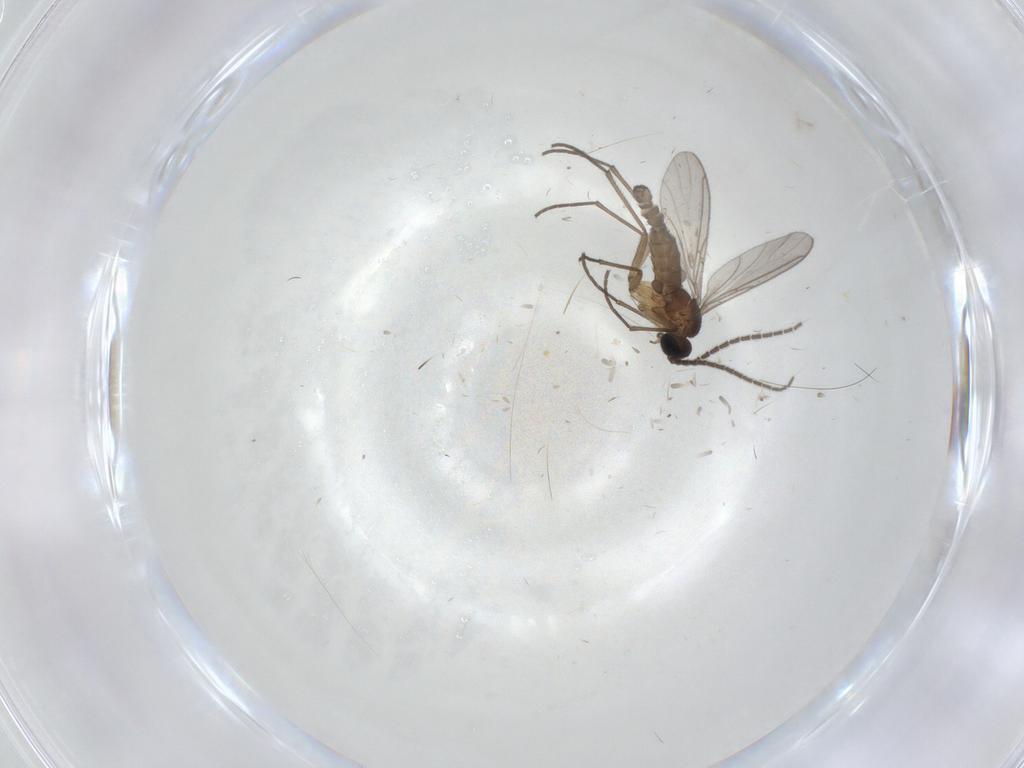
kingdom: Animalia
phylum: Arthropoda
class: Insecta
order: Diptera
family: Sciaridae
